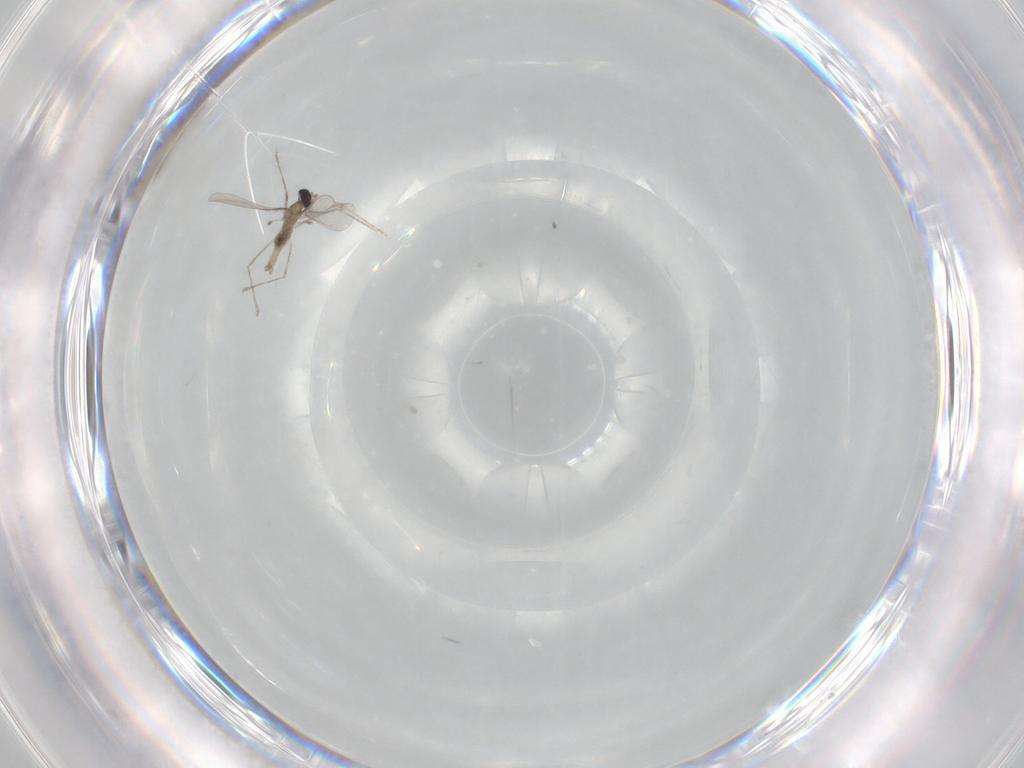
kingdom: Animalia
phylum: Arthropoda
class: Insecta
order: Diptera
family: Cecidomyiidae
